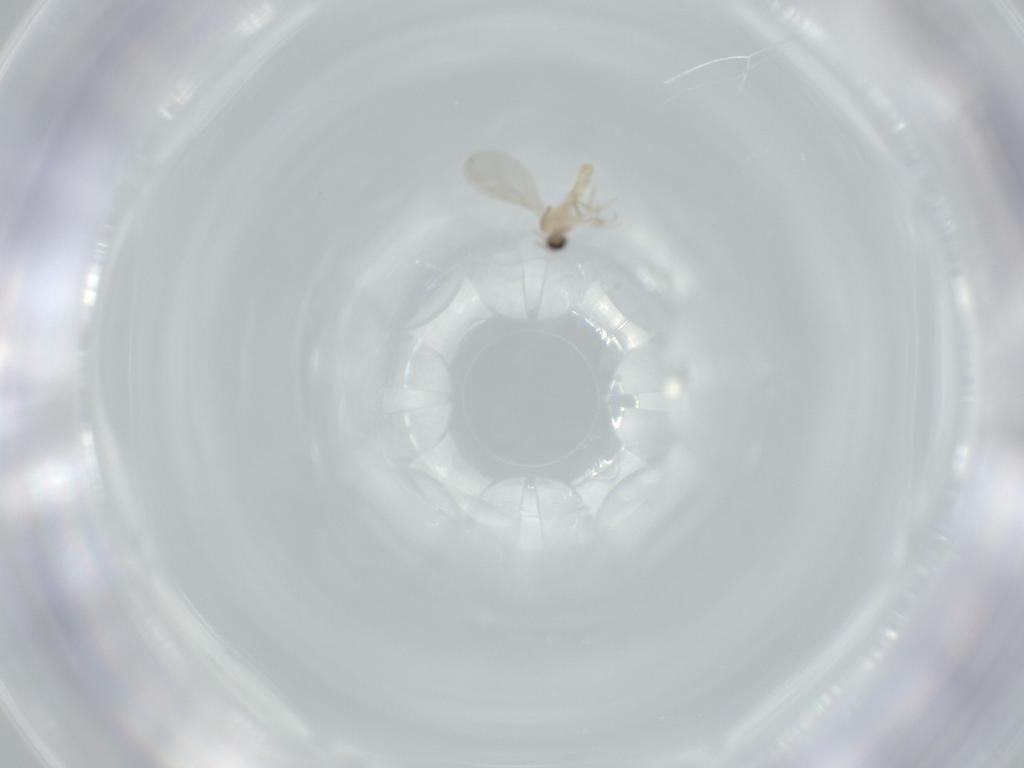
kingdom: Animalia
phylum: Arthropoda
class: Insecta
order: Diptera
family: Cecidomyiidae
